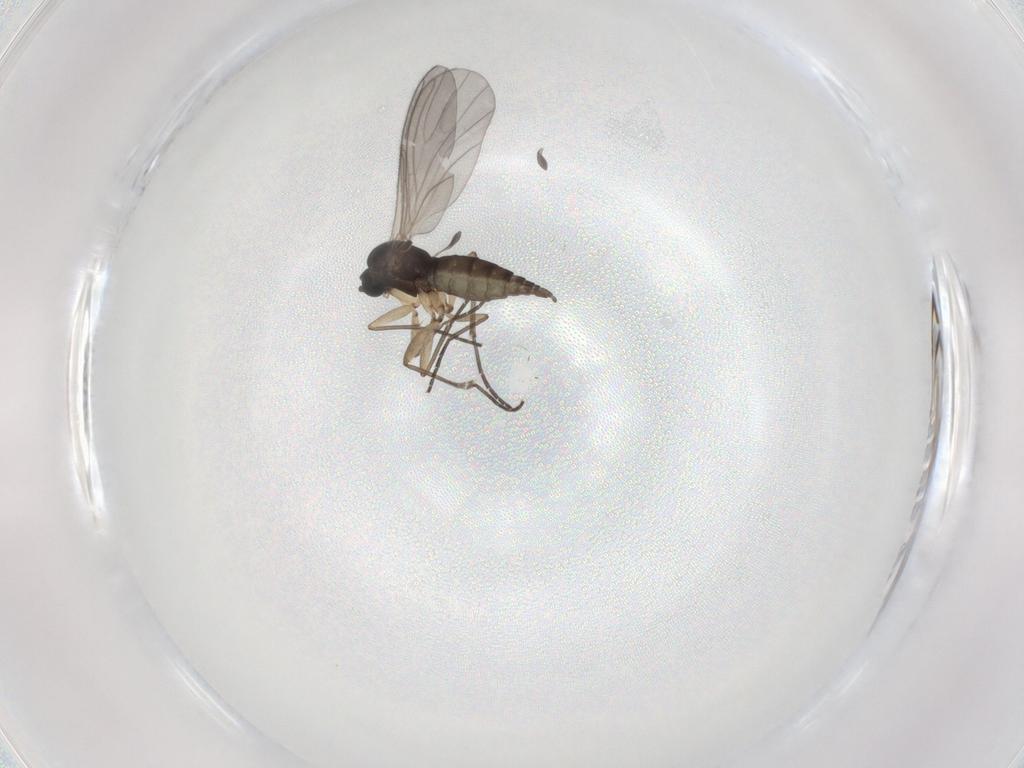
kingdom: Animalia
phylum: Arthropoda
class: Insecta
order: Diptera
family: Sciaridae
